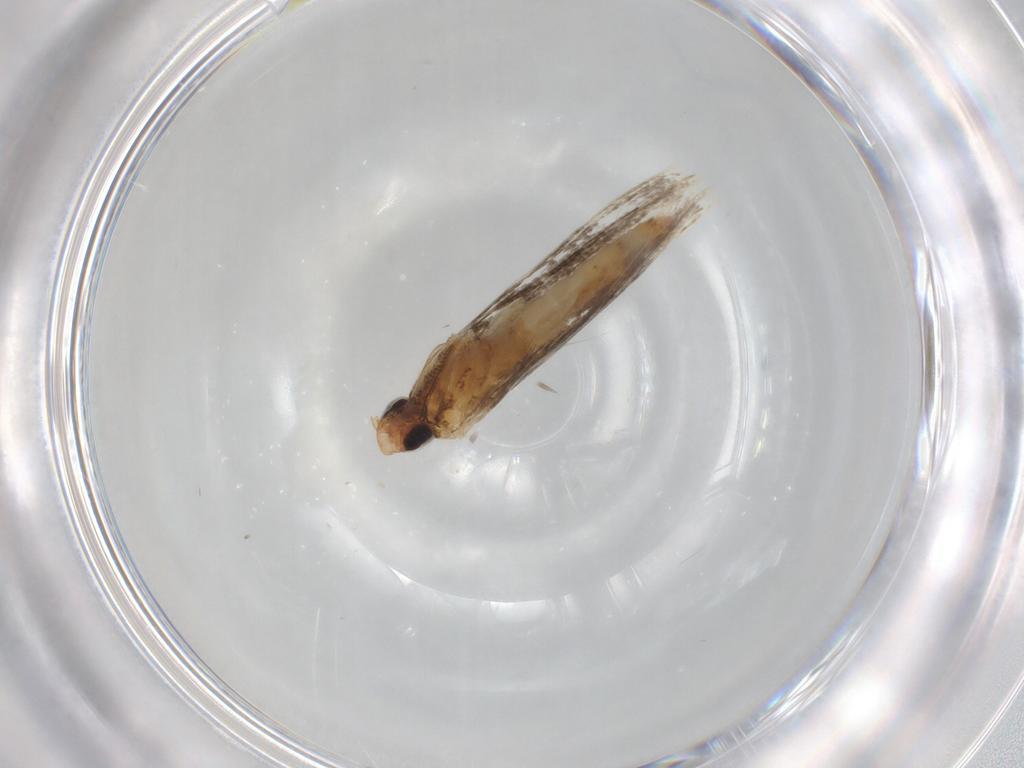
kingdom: Animalia
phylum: Arthropoda
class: Insecta
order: Lepidoptera
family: Gracillariidae
